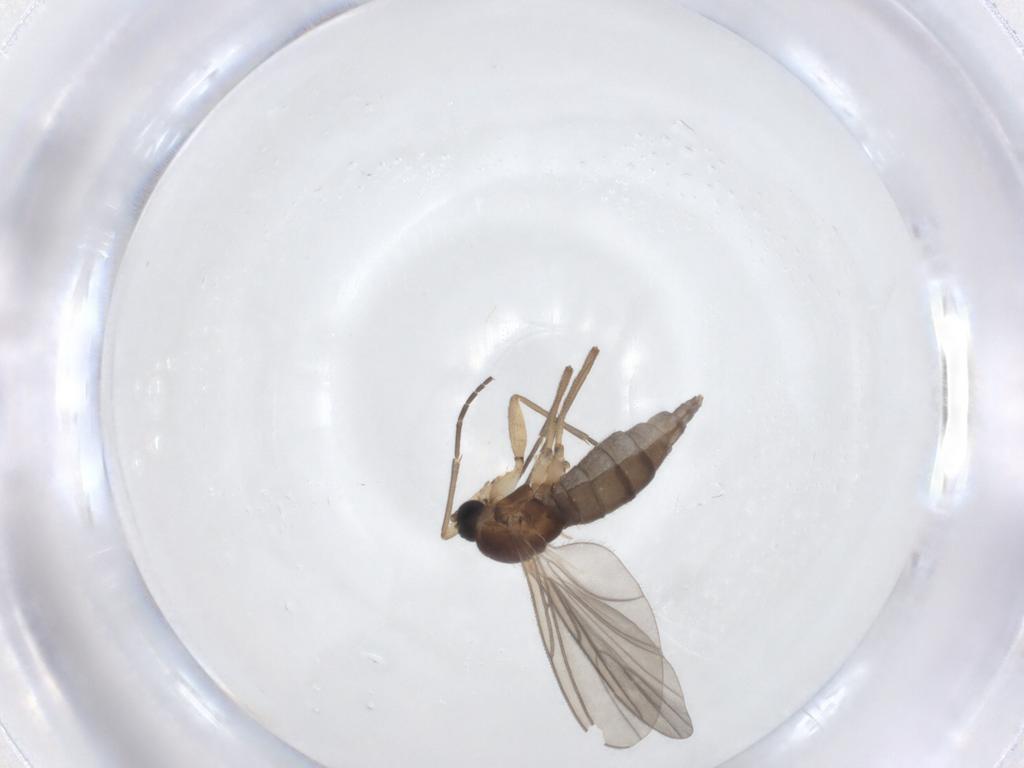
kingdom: Animalia
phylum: Arthropoda
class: Insecta
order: Diptera
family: Sciaridae
